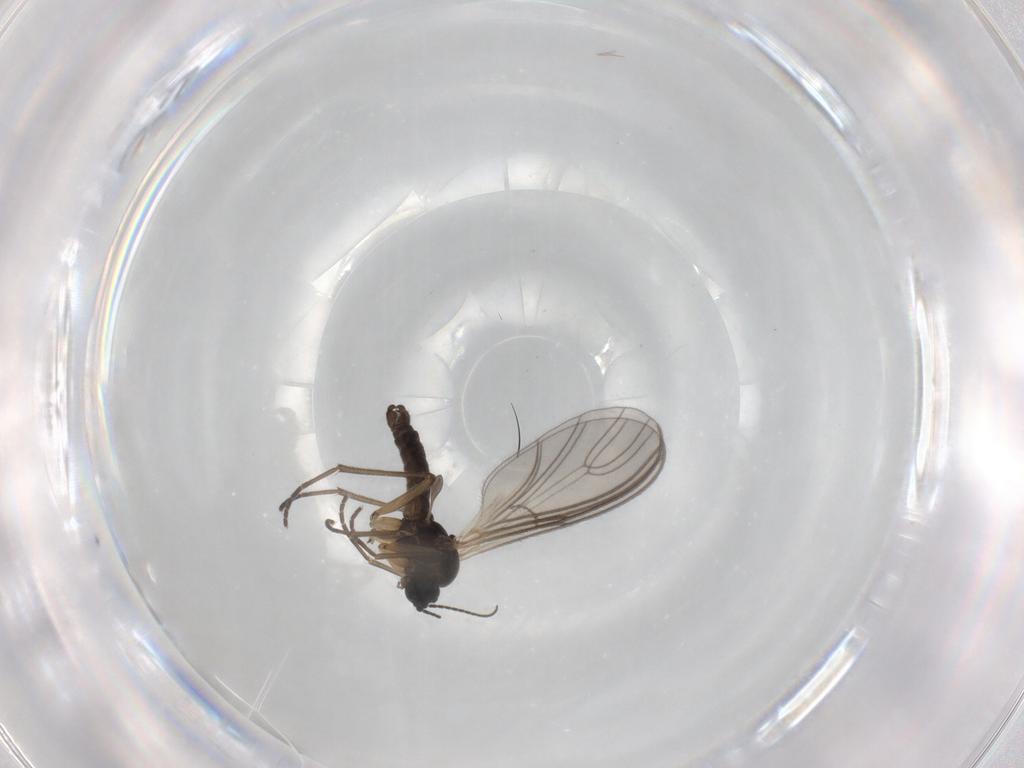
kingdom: Animalia
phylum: Arthropoda
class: Insecta
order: Diptera
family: Sciaridae
